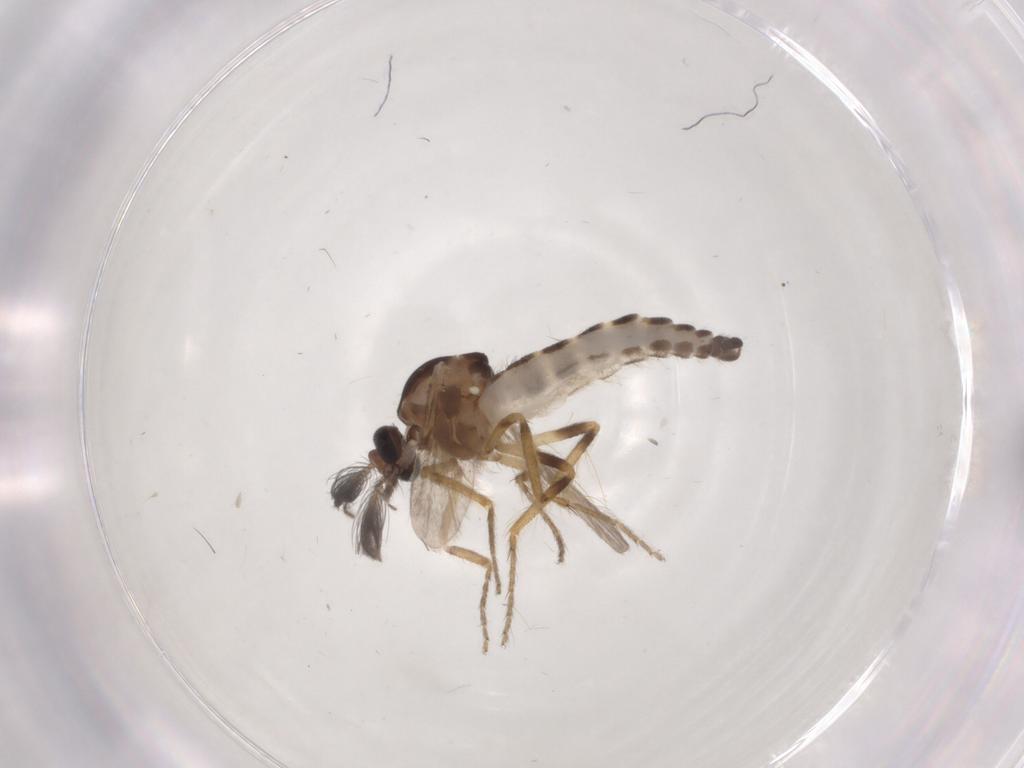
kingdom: Animalia
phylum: Arthropoda
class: Insecta
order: Diptera
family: Ceratopogonidae
